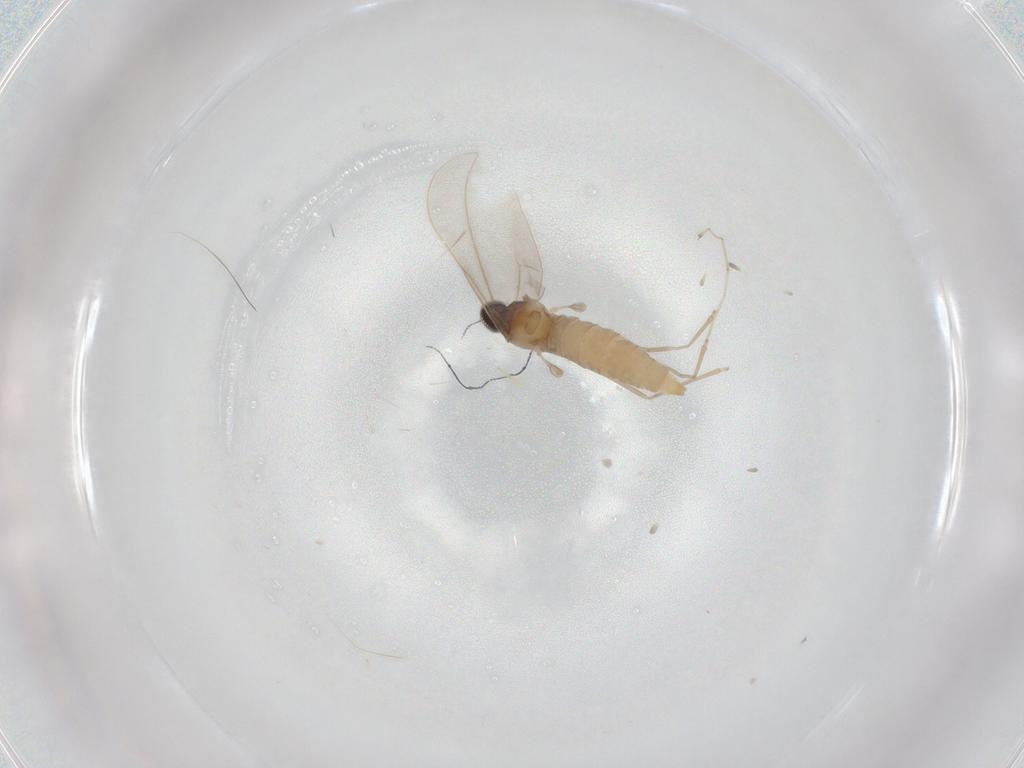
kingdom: Animalia
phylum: Arthropoda
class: Insecta
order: Diptera
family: Cecidomyiidae
